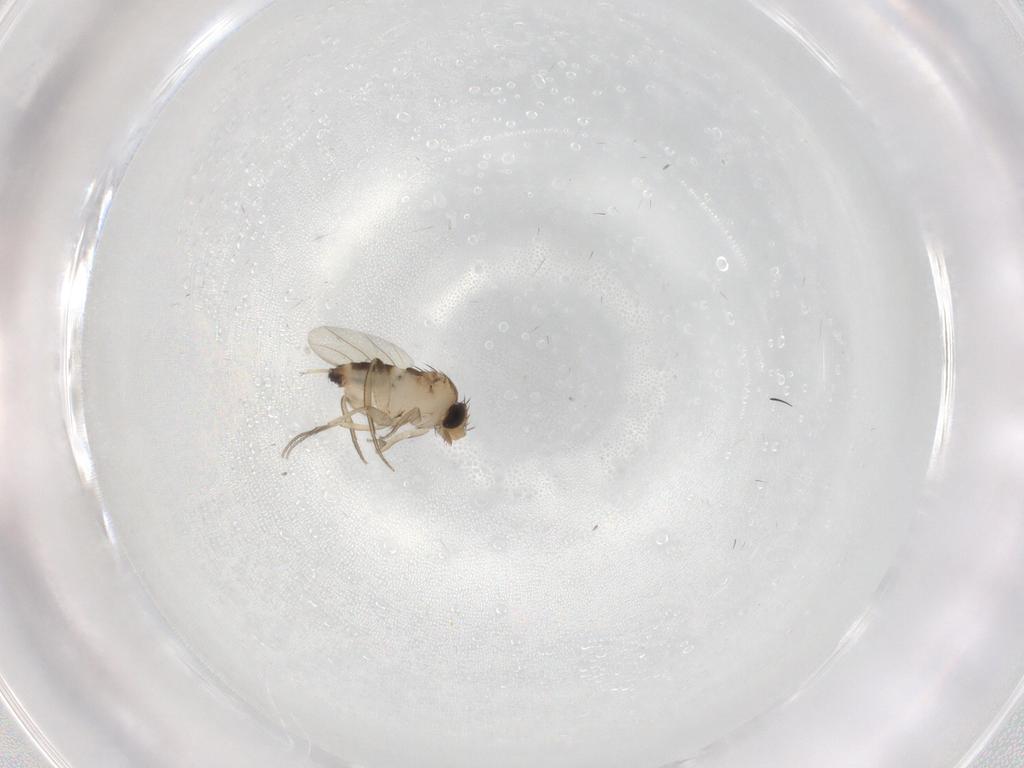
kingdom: Animalia
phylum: Arthropoda
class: Insecta
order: Diptera
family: Phoridae
